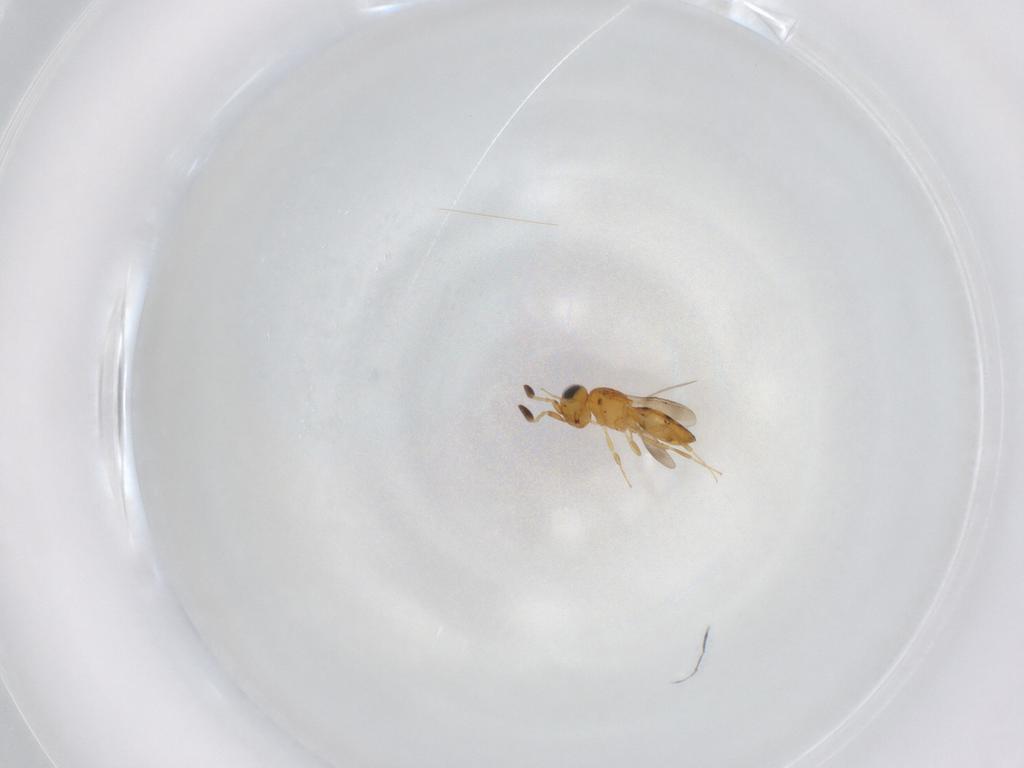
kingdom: Animalia
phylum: Arthropoda
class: Insecta
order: Hymenoptera
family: Scelionidae
